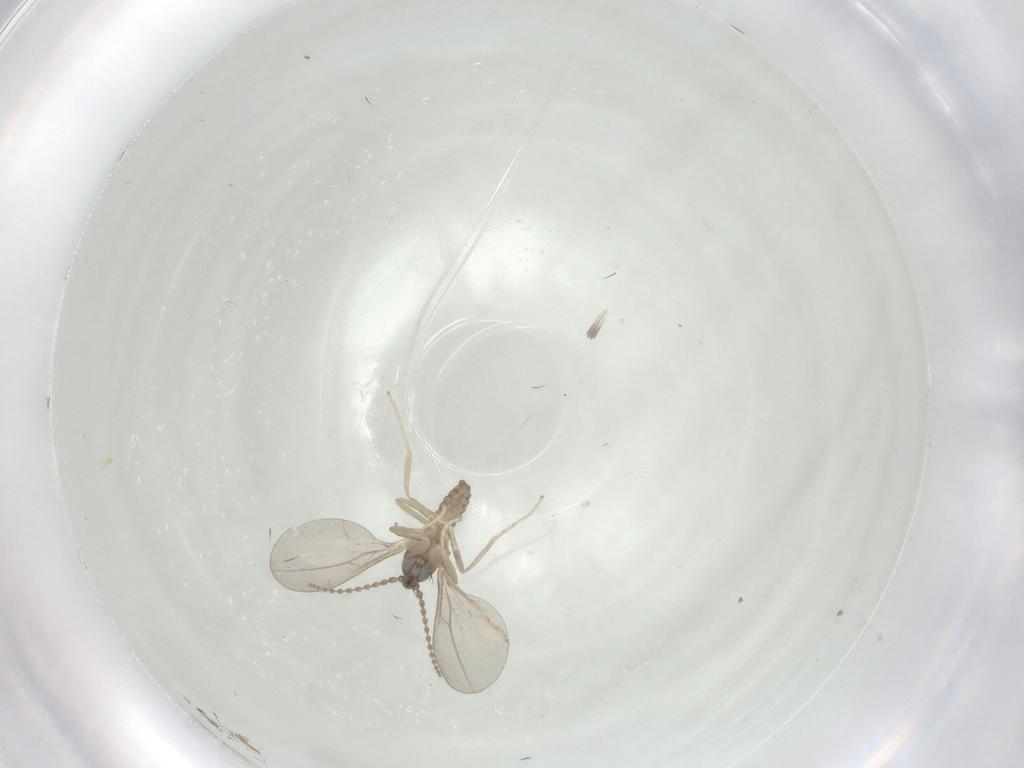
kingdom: Animalia
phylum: Arthropoda
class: Insecta
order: Diptera
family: Cecidomyiidae
